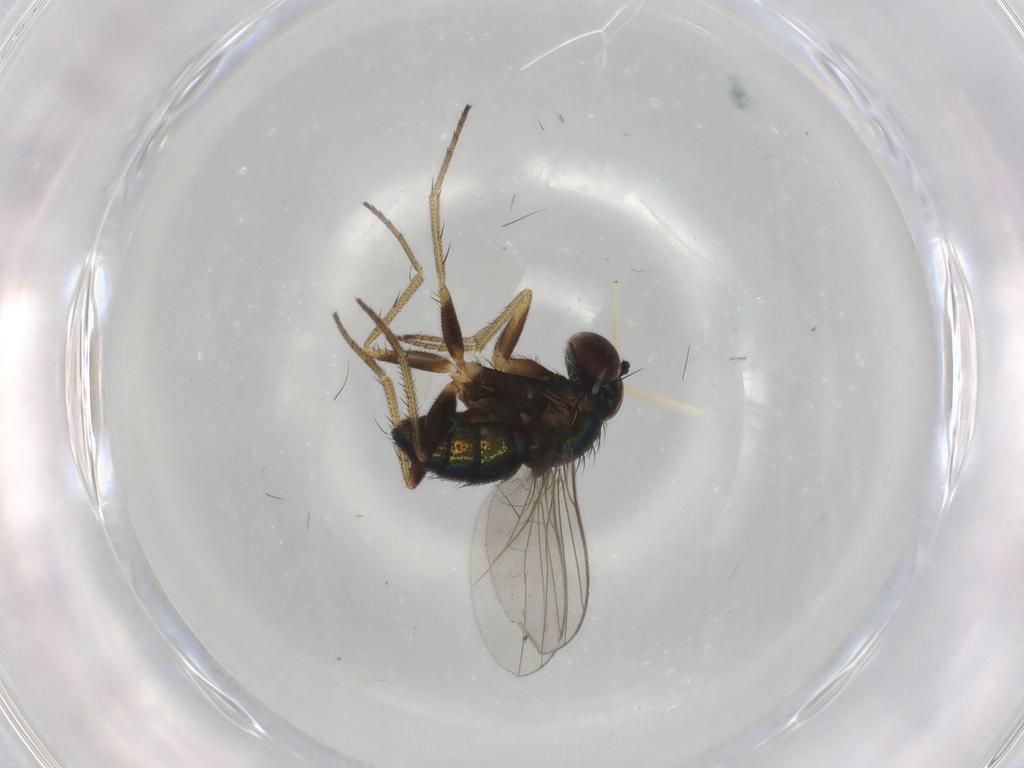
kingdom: Animalia
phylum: Arthropoda
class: Insecta
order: Diptera
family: Dolichopodidae
